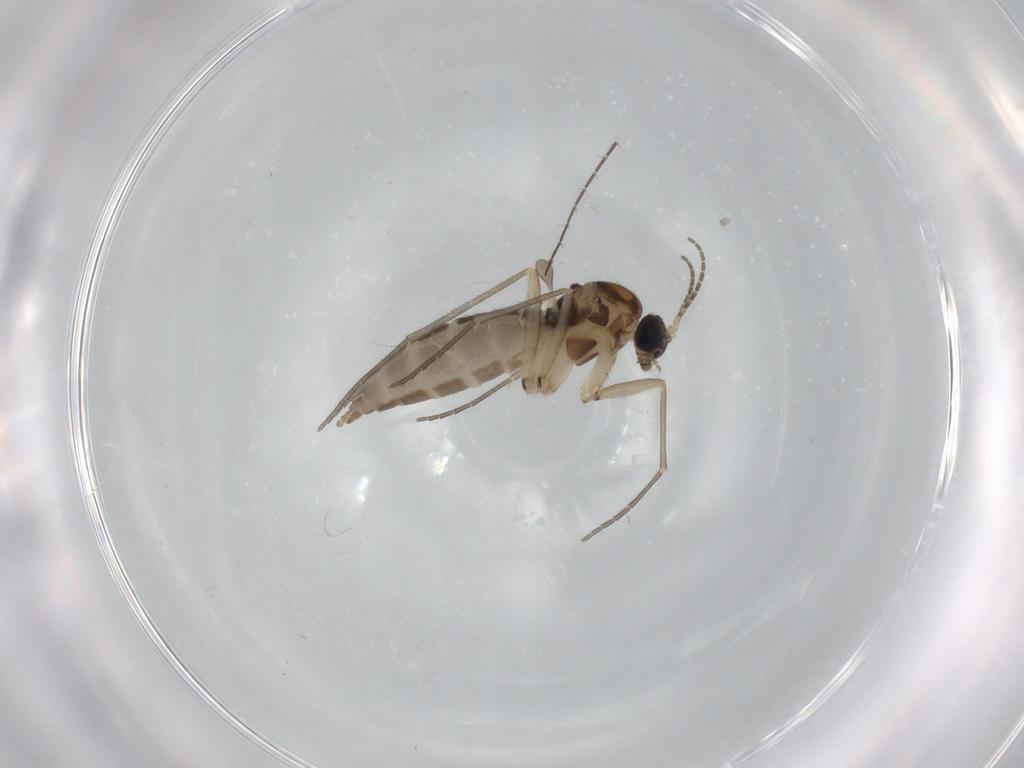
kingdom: Animalia
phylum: Arthropoda
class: Insecta
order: Diptera
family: Sciaridae
